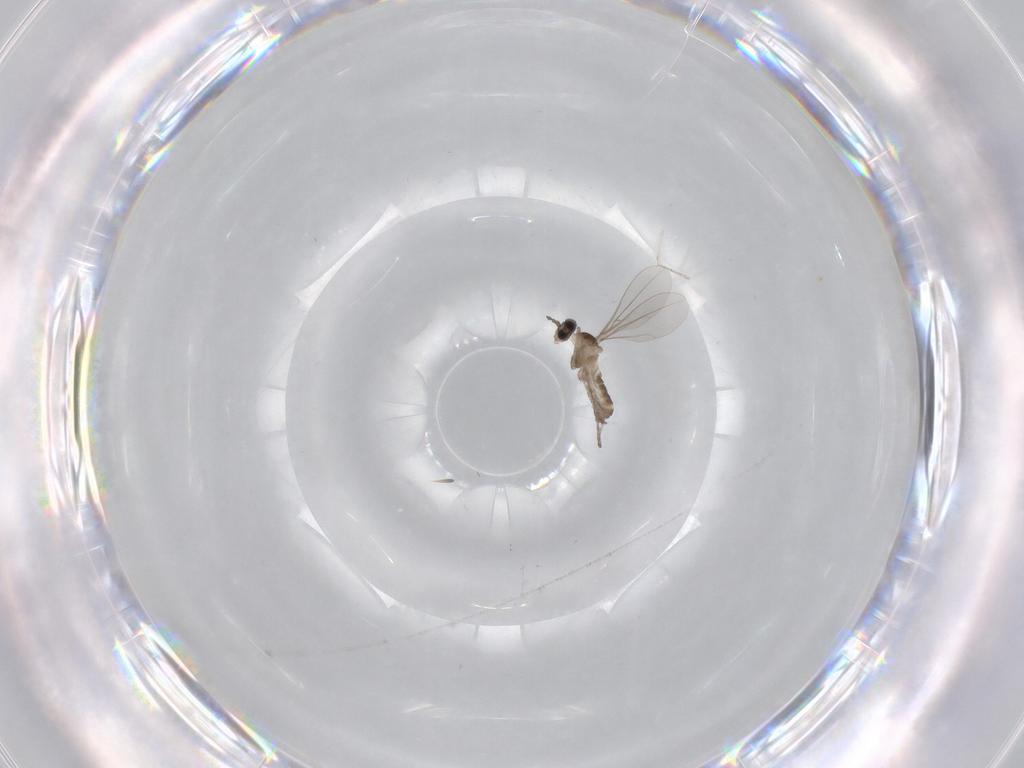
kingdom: Animalia
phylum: Arthropoda
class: Insecta
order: Diptera
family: Cecidomyiidae
